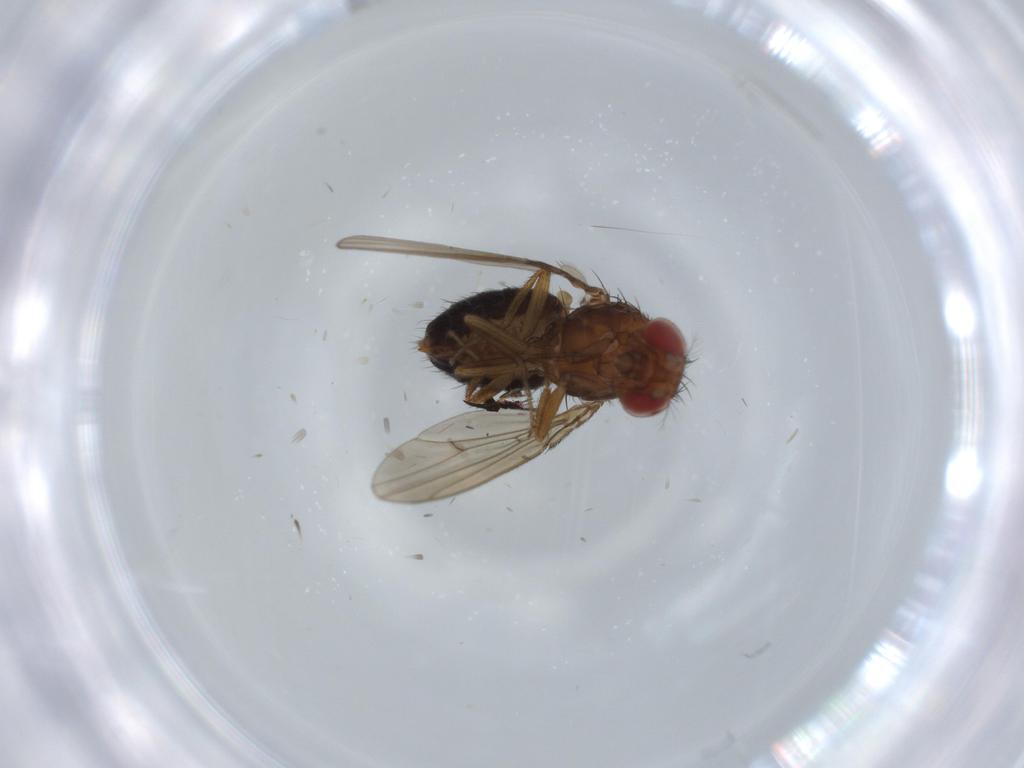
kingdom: Animalia
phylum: Arthropoda
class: Insecta
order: Diptera
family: Drosophilidae
